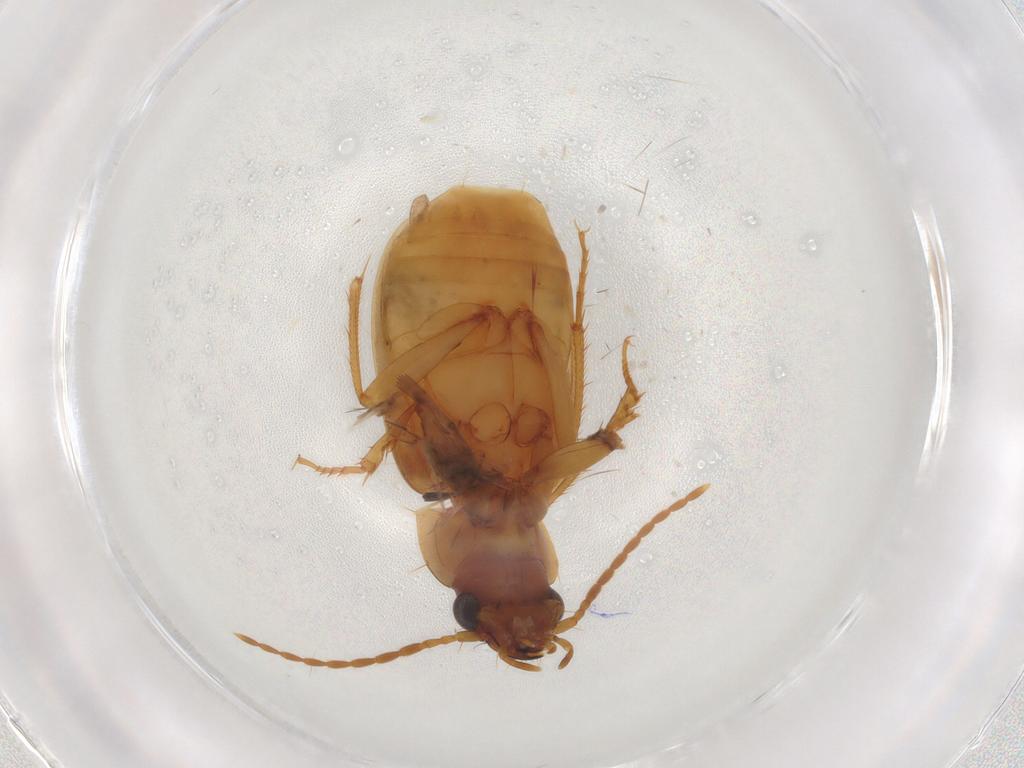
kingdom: Animalia
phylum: Arthropoda
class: Insecta
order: Coleoptera
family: Carabidae
